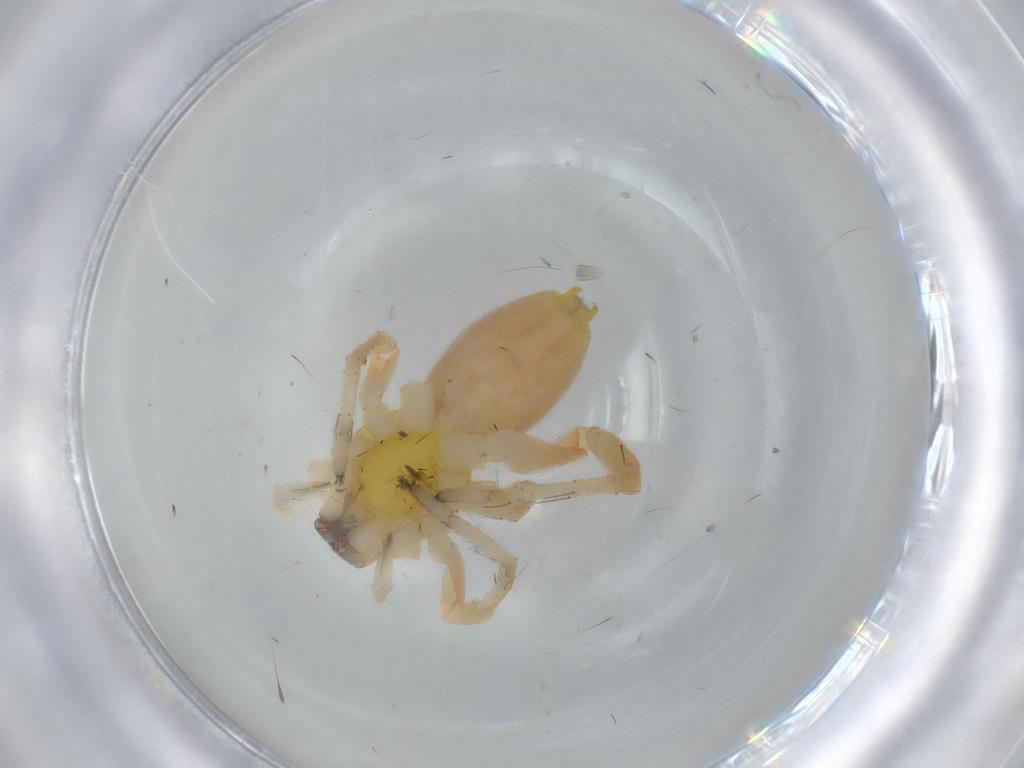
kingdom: Animalia
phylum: Arthropoda
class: Arachnida
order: Araneae
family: Anyphaenidae
